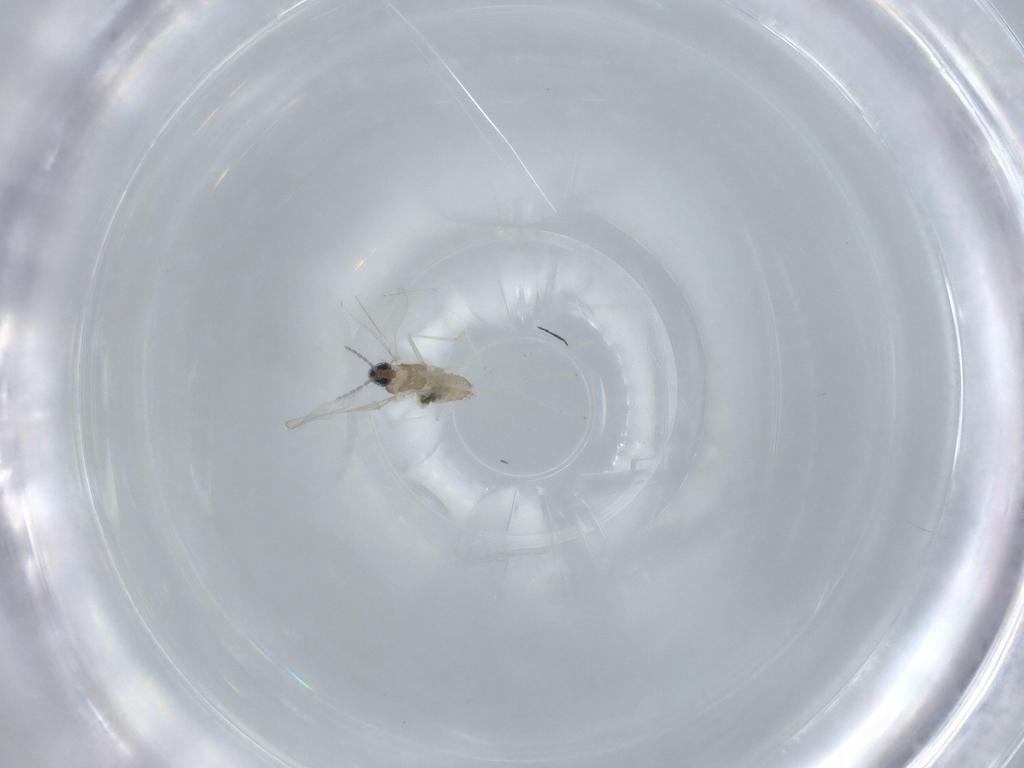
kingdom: Animalia
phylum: Arthropoda
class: Insecta
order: Diptera
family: Cecidomyiidae
